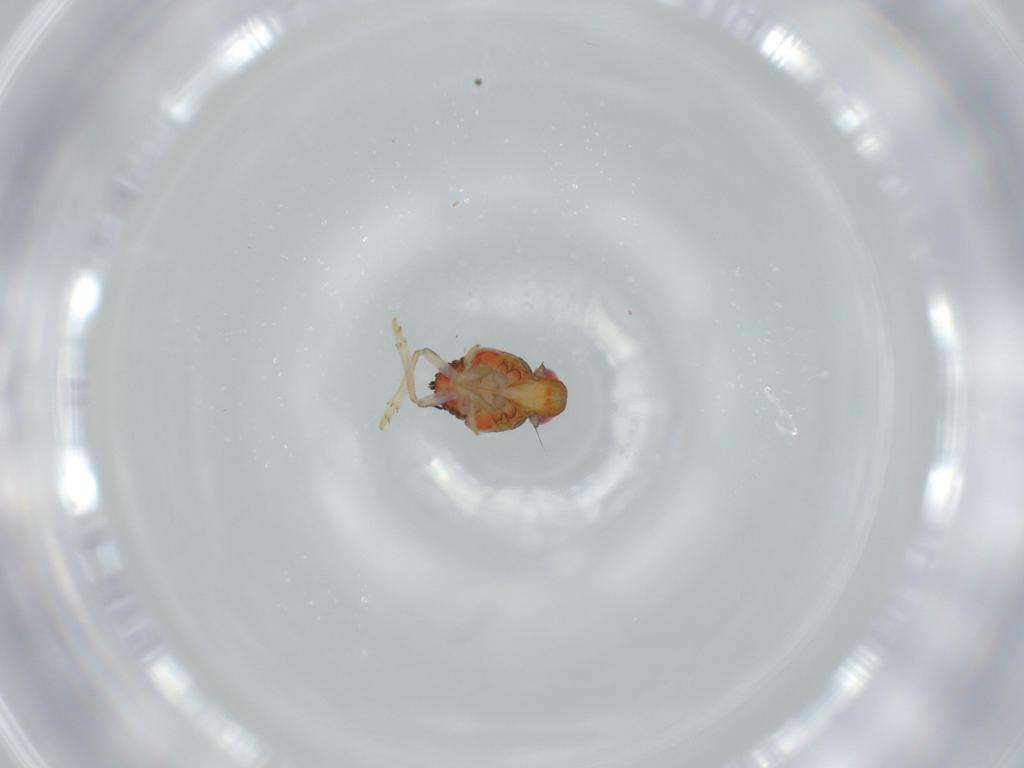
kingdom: Animalia
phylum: Arthropoda
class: Insecta
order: Hemiptera
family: Issidae
